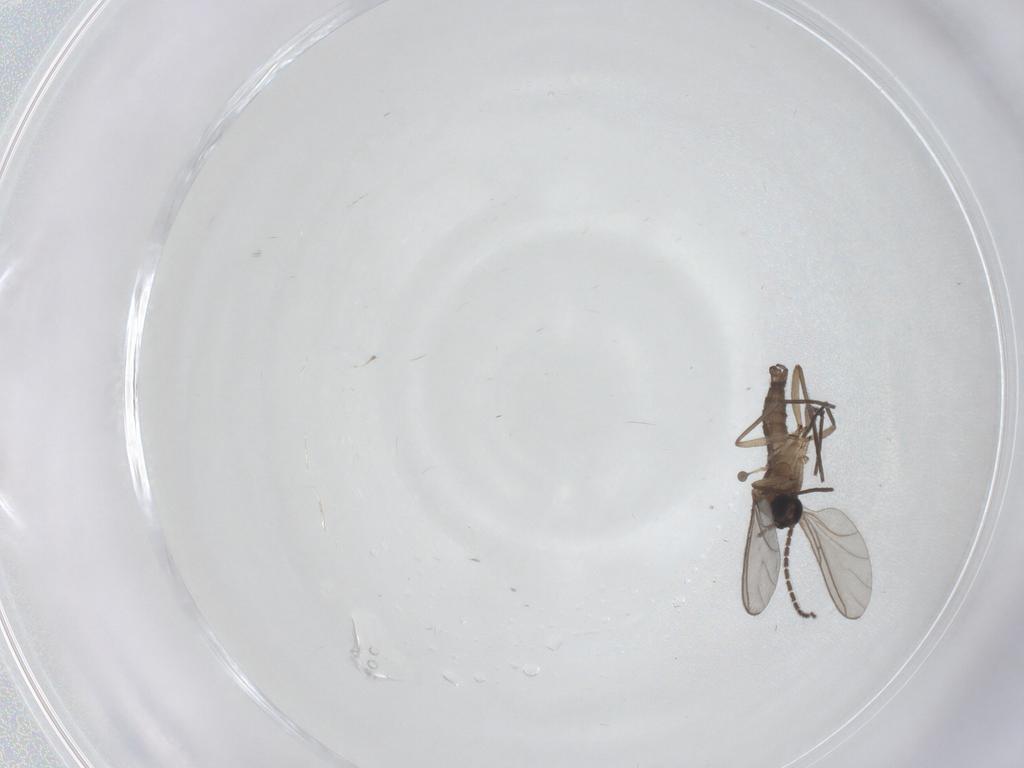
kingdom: Animalia
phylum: Arthropoda
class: Insecta
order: Diptera
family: Sciaridae
